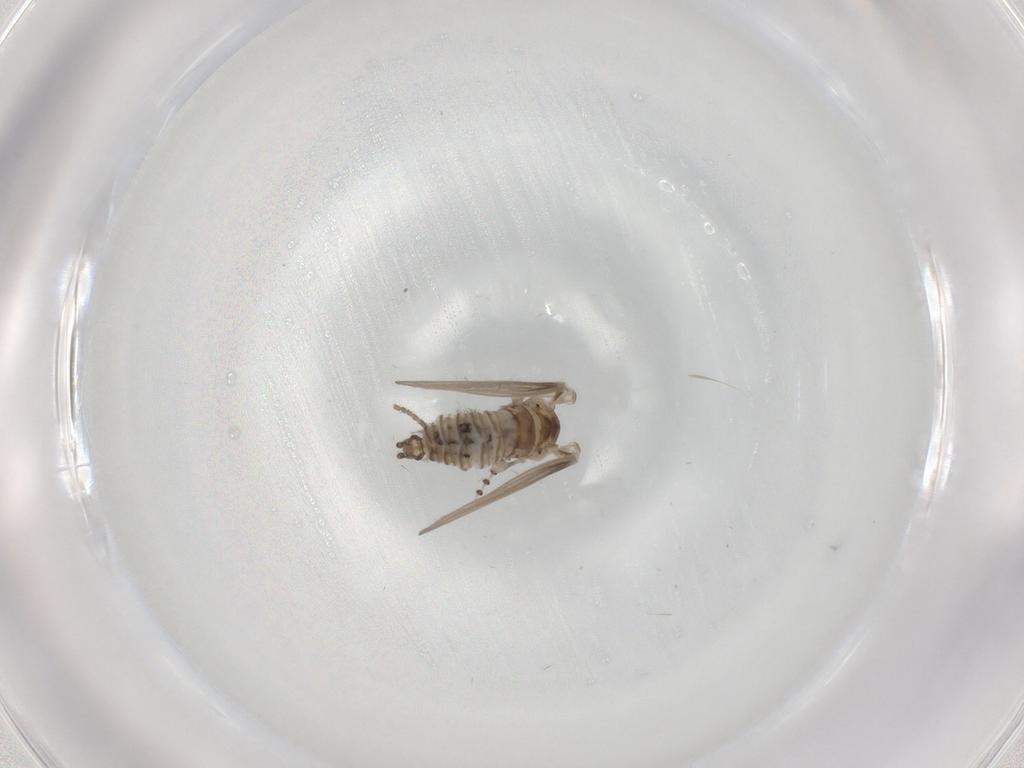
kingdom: Animalia
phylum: Arthropoda
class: Insecta
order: Diptera
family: Psychodidae
